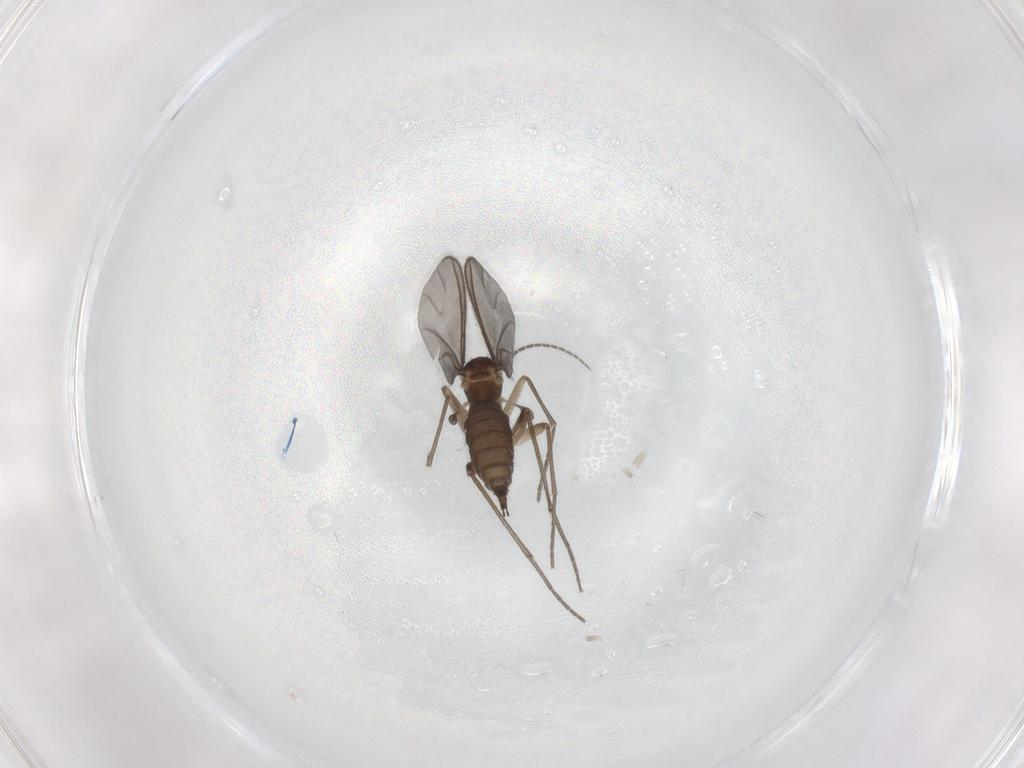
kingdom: Animalia
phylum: Arthropoda
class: Insecta
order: Diptera
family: Sciaridae
